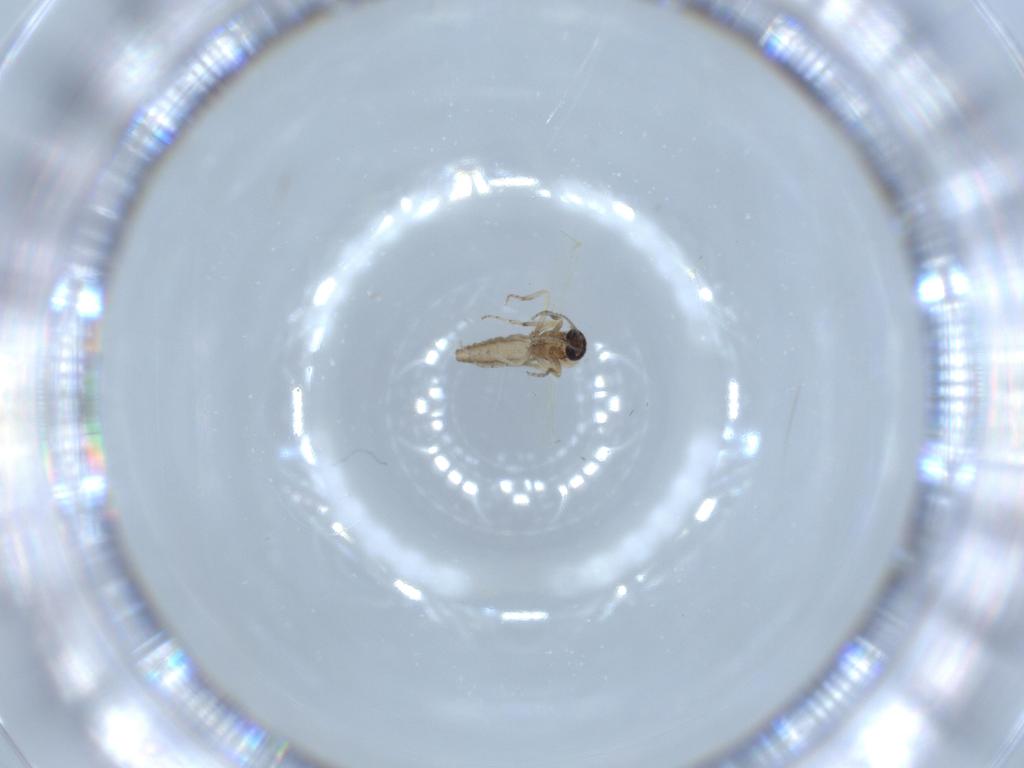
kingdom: Animalia
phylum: Arthropoda
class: Insecta
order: Diptera
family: Ceratopogonidae
